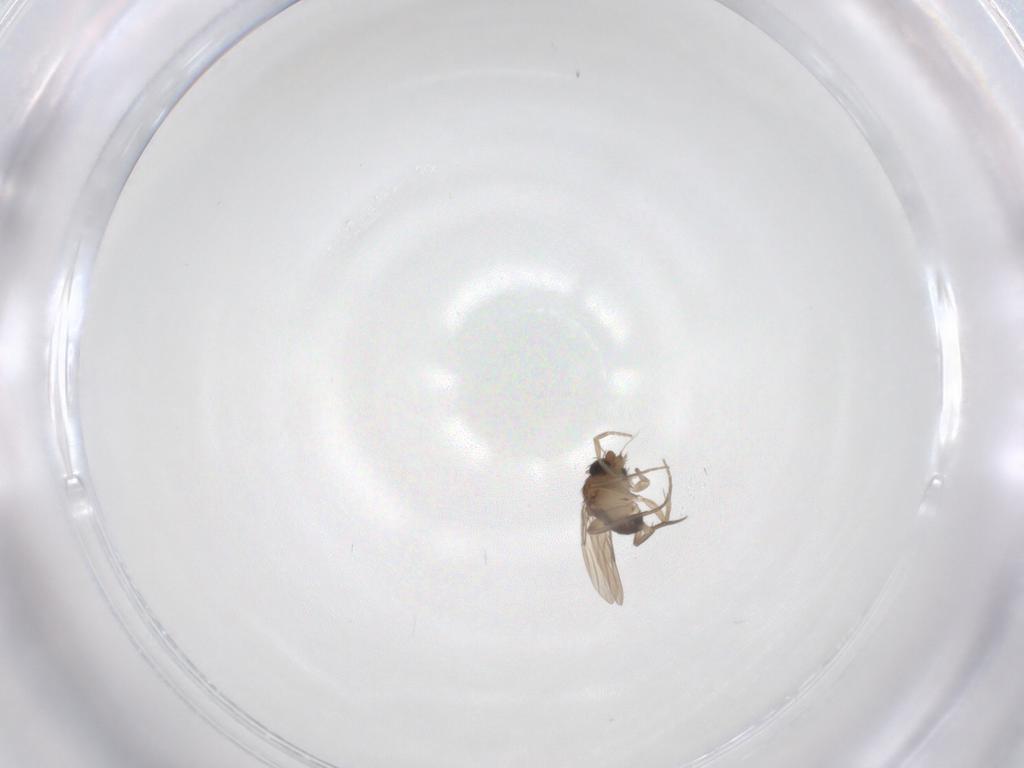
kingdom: Animalia
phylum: Arthropoda
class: Insecta
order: Diptera
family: Phoridae
